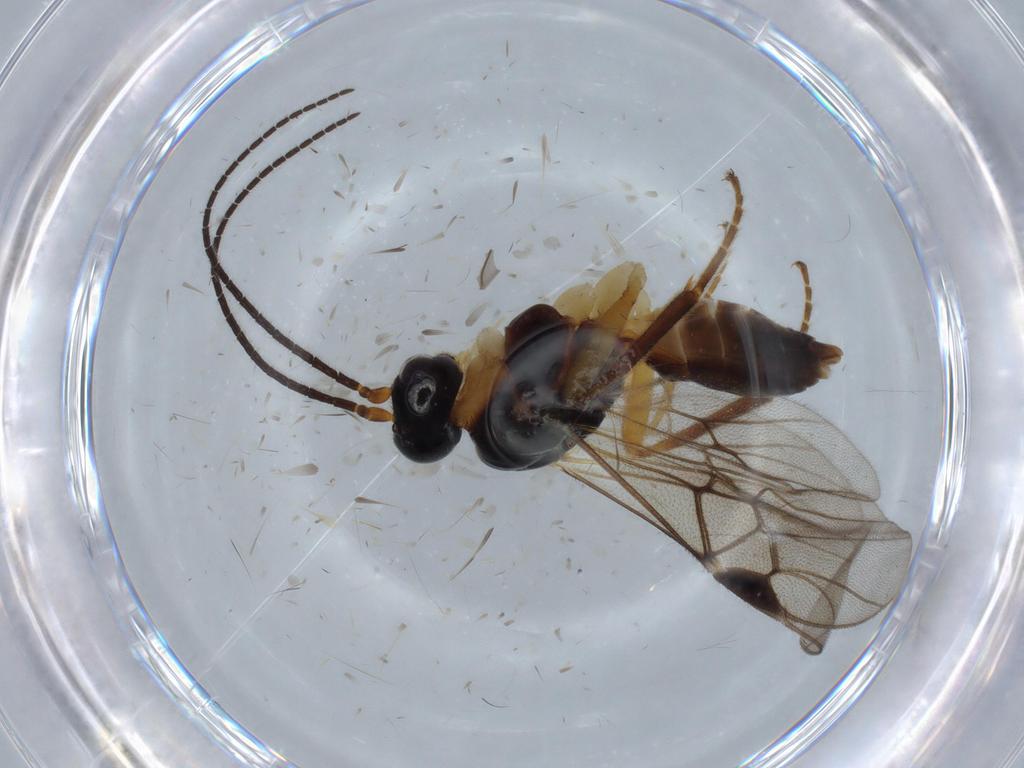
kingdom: Animalia
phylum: Arthropoda
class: Insecta
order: Hymenoptera
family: Braconidae
